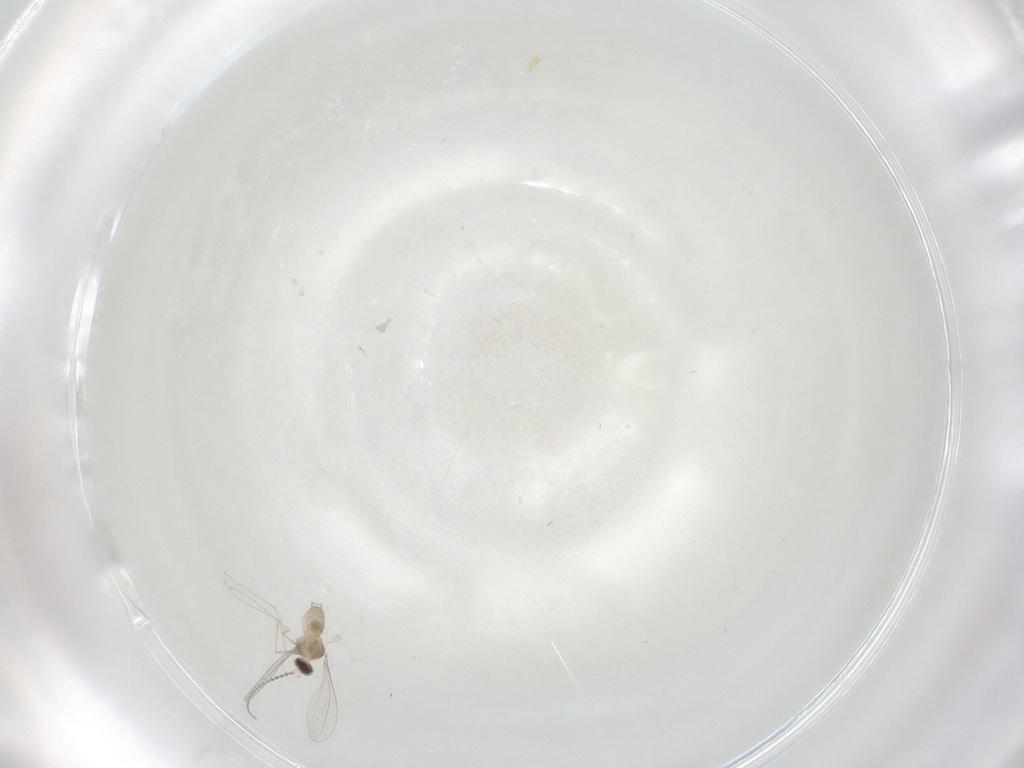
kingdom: Animalia
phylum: Arthropoda
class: Insecta
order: Diptera
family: Cecidomyiidae
